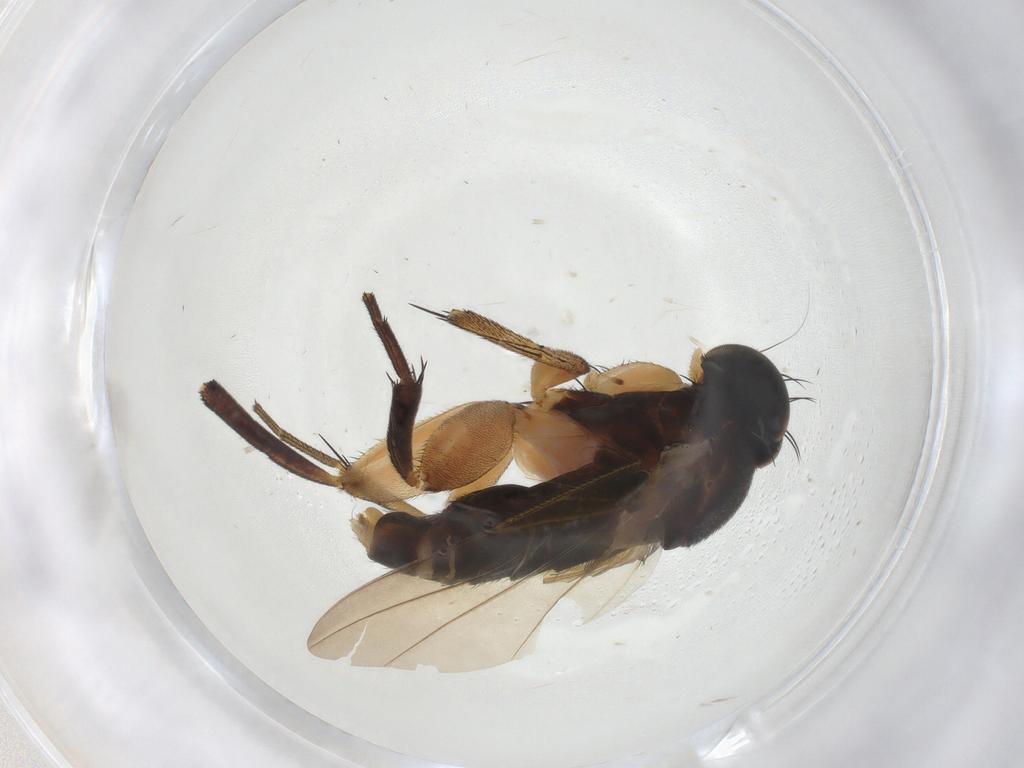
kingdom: Animalia
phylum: Arthropoda
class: Insecta
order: Diptera
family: Phoridae
